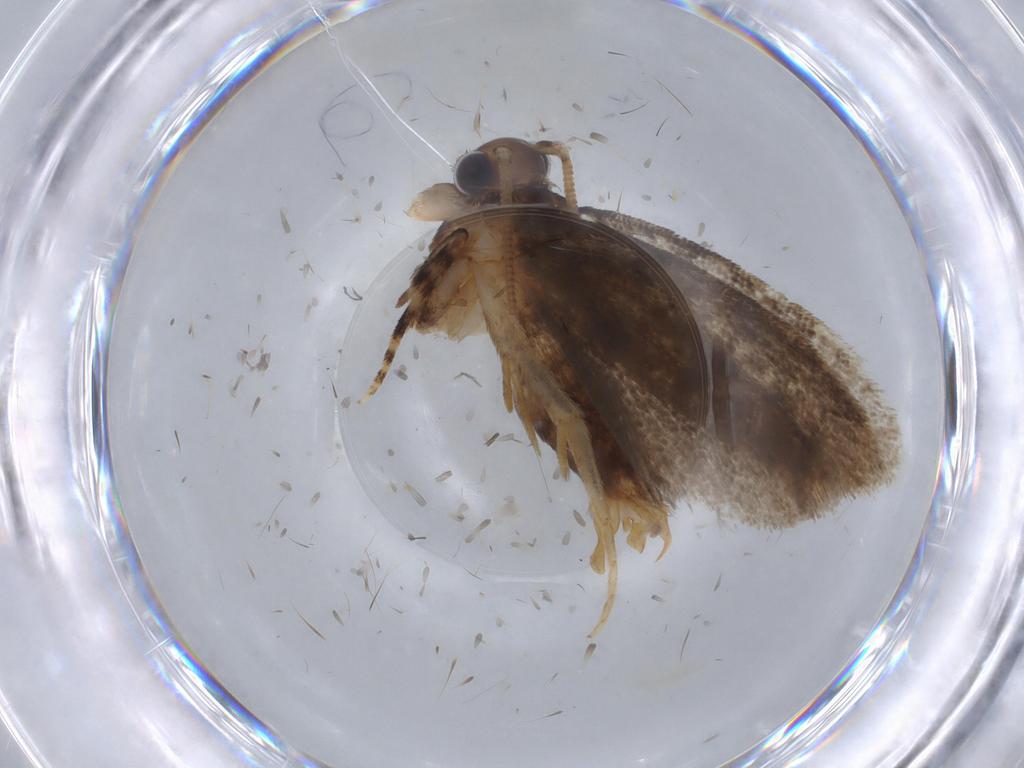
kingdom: Animalia
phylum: Arthropoda
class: Insecta
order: Lepidoptera
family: Tineidae
